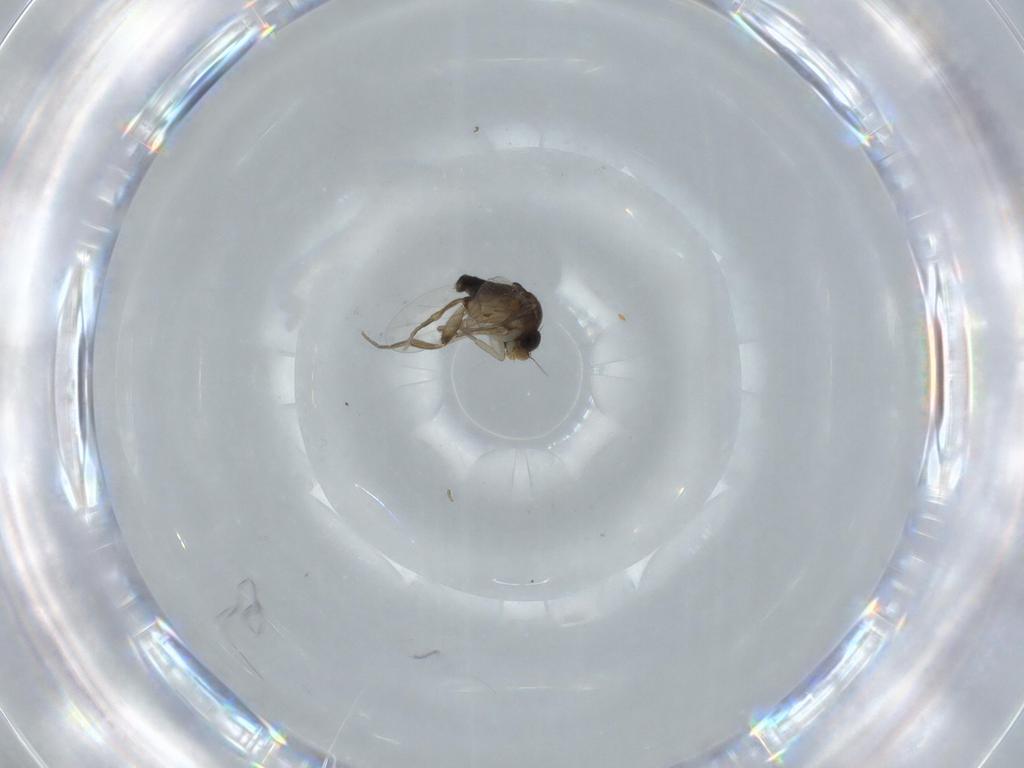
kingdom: Animalia
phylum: Arthropoda
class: Insecta
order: Diptera
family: Phoridae
